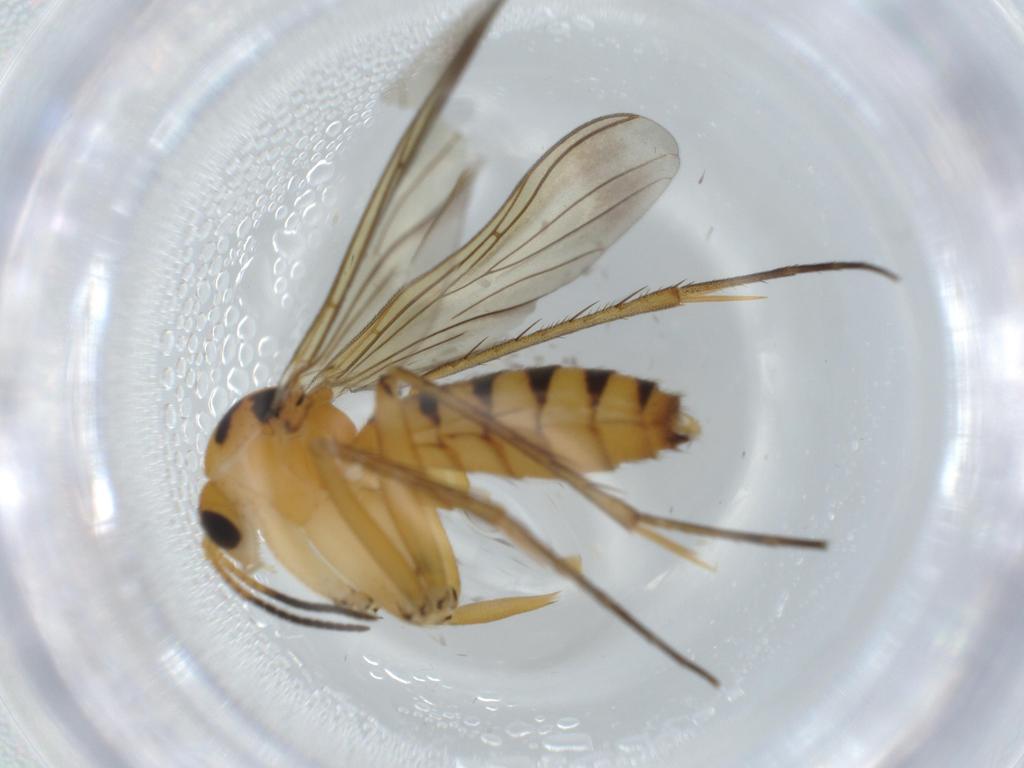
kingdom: Animalia
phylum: Arthropoda
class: Insecta
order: Diptera
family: Mycetophilidae
